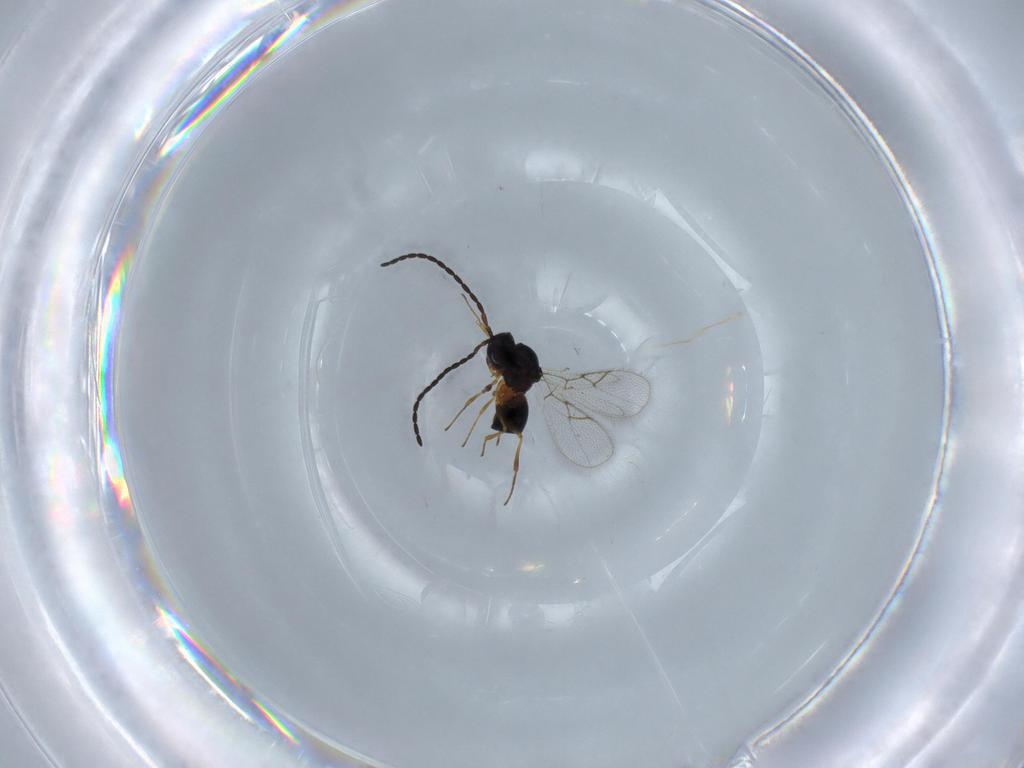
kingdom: Animalia
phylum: Arthropoda
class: Insecta
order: Hymenoptera
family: Figitidae
